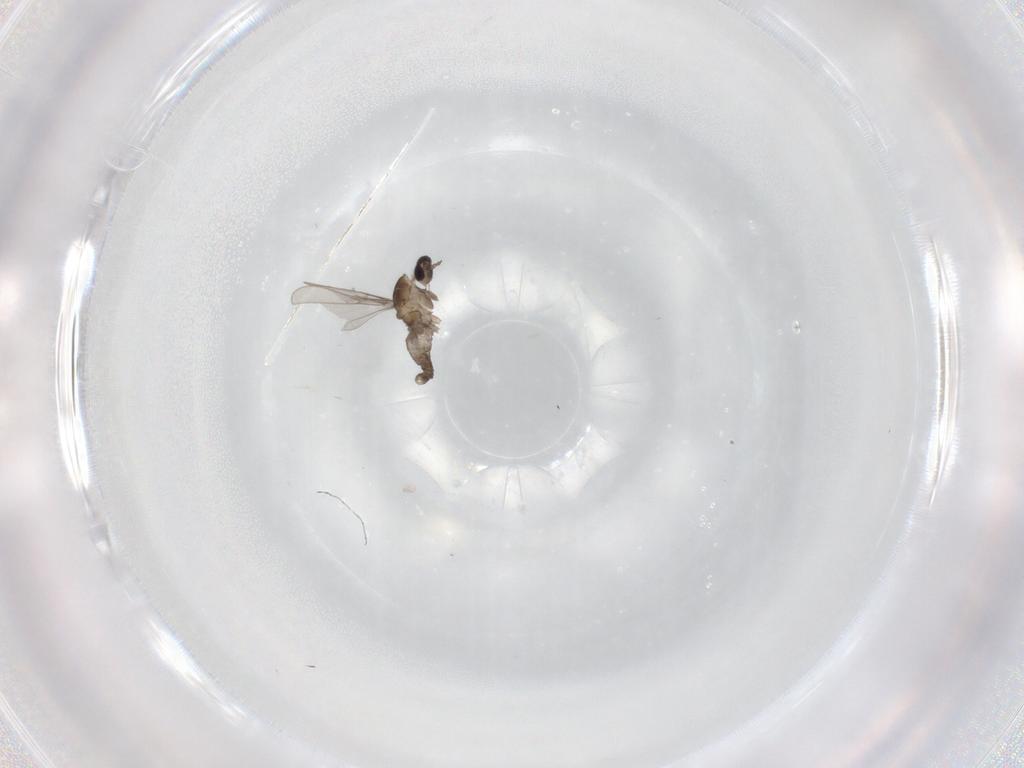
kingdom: Animalia
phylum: Arthropoda
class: Insecta
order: Diptera
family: Cecidomyiidae
